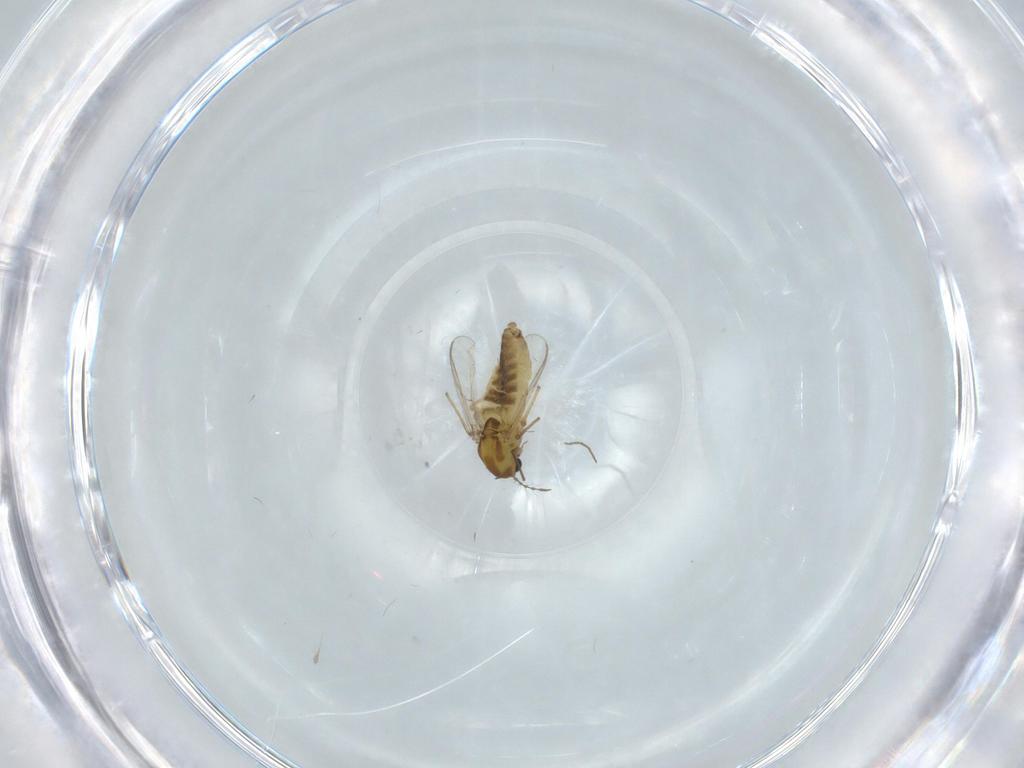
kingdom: Animalia
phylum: Arthropoda
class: Insecta
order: Diptera
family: Chironomidae
